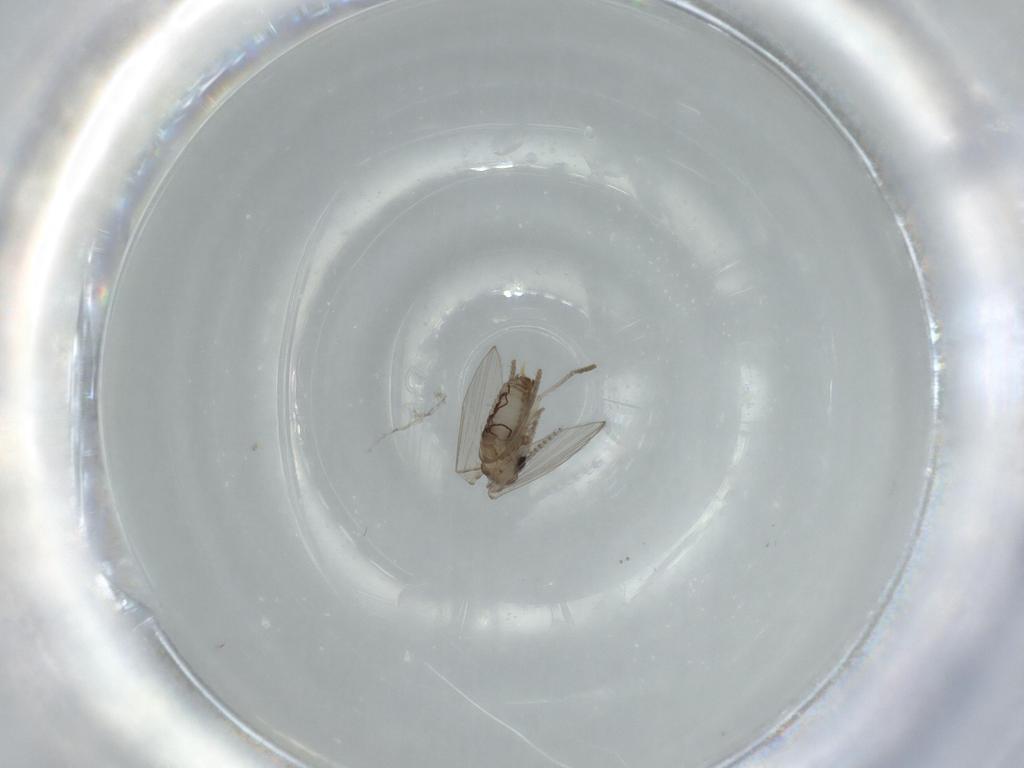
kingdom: Animalia
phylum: Arthropoda
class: Insecta
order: Diptera
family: Psychodidae
